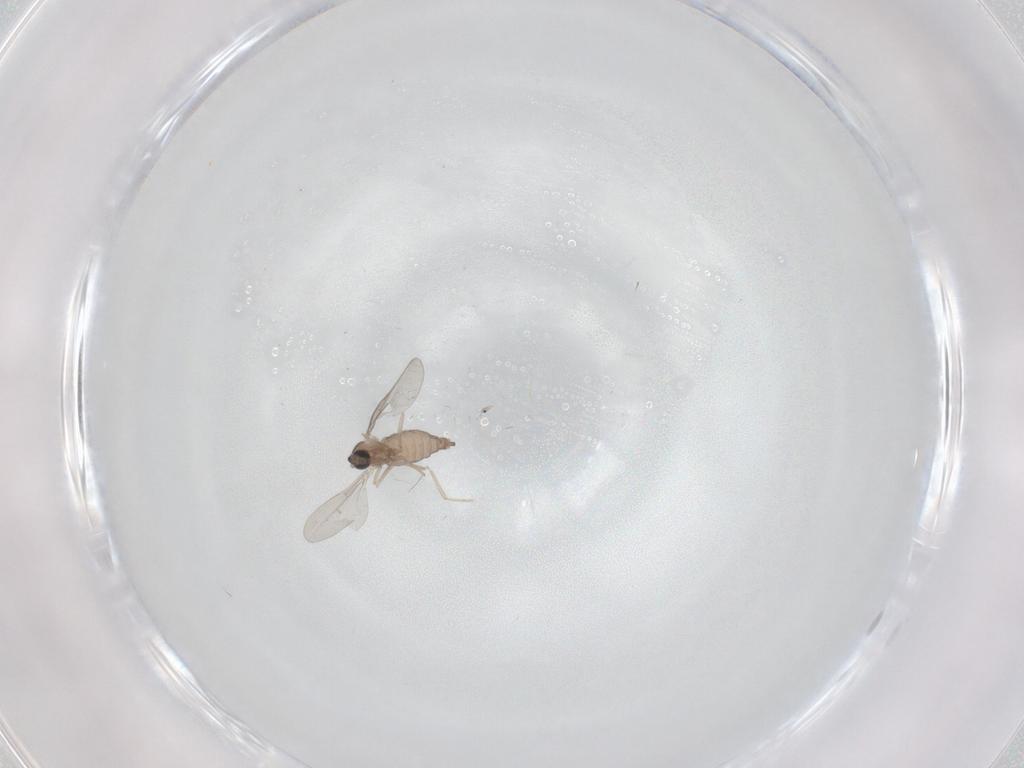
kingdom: Animalia
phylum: Arthropoda
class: Insecta
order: Diptera
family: Cecidomyiidae
